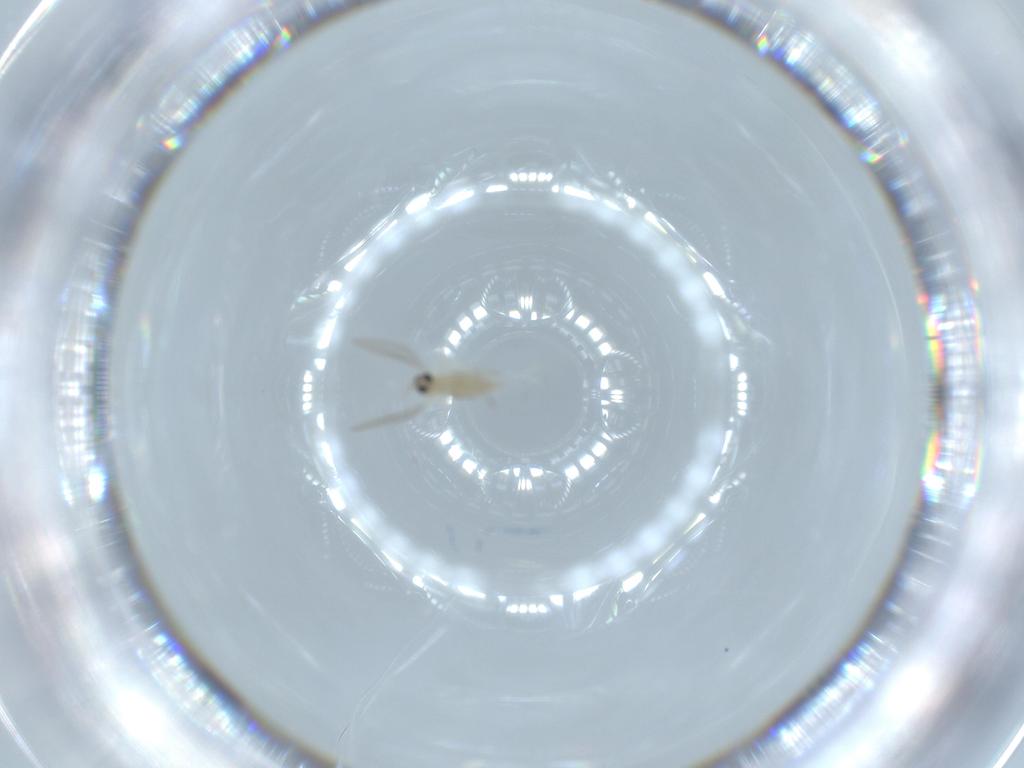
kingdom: Animalia
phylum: Arthropoda
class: Insecta
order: Diptera
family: Cecidomyiidae
